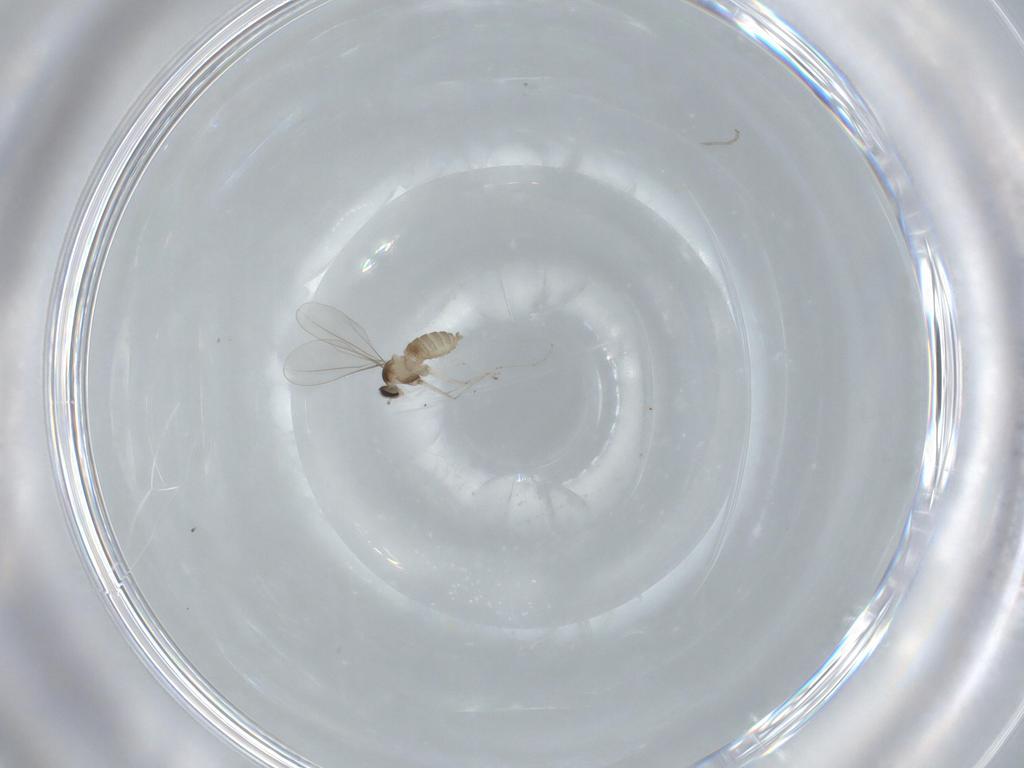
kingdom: Animalia
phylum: Arthropoda
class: Insecta
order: Diptera
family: Cecidomyiidae
